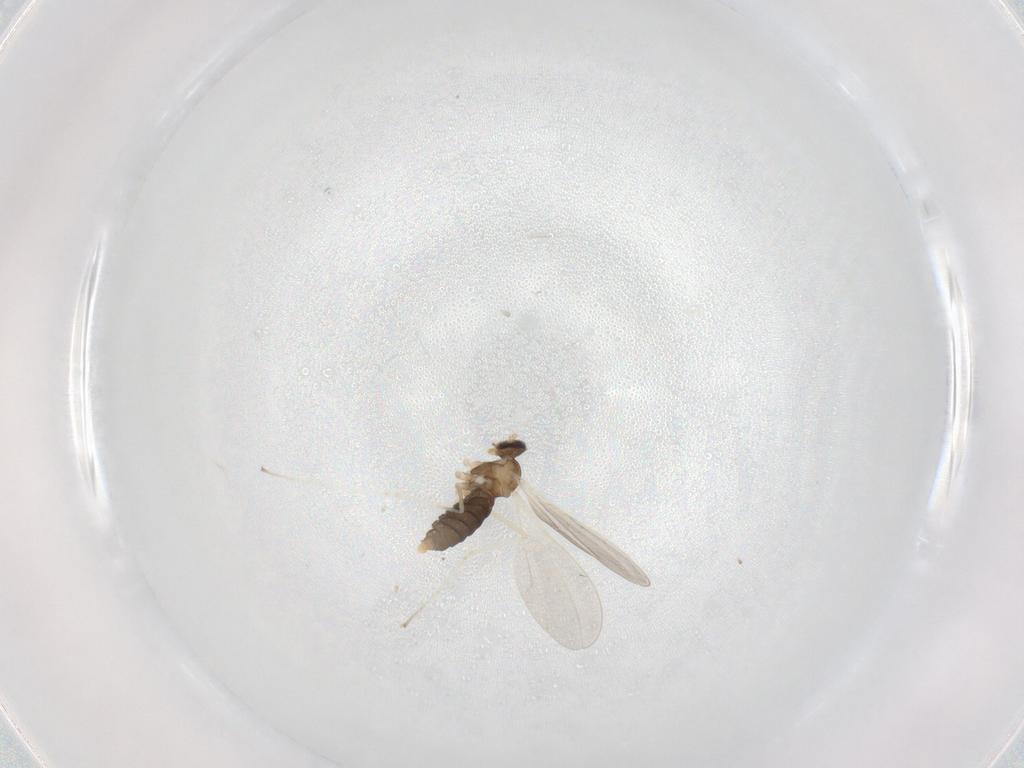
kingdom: Animalia
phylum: Arthropoda
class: Insecta
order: Diptera
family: Cecidomyiidae
